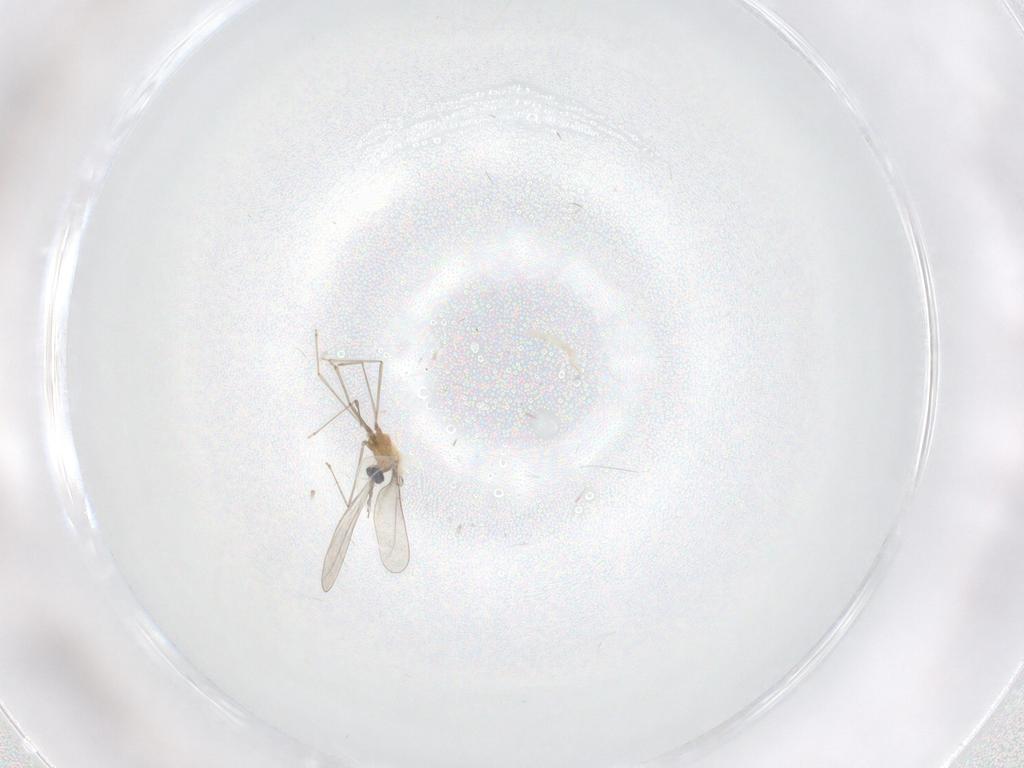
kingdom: Animalia
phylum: Arthropoda
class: Insecta
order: Diptera
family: Cecidomyiidae
